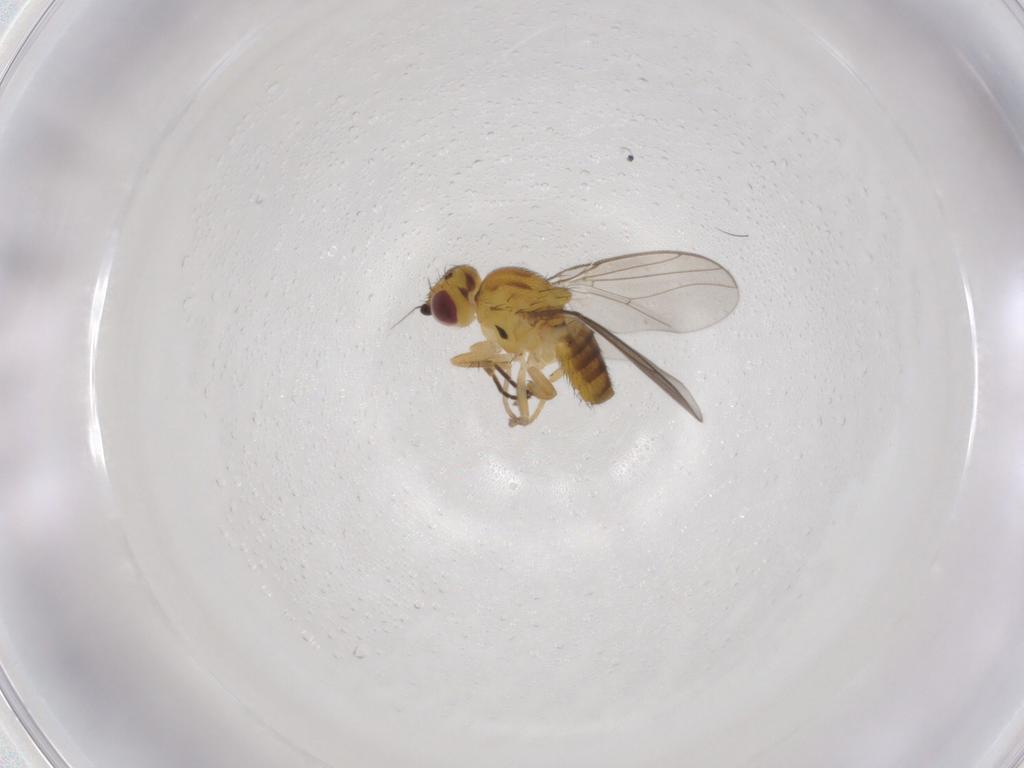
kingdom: Animalia
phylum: Arthropoda
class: Insecta
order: Diptera
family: Chloropidae
